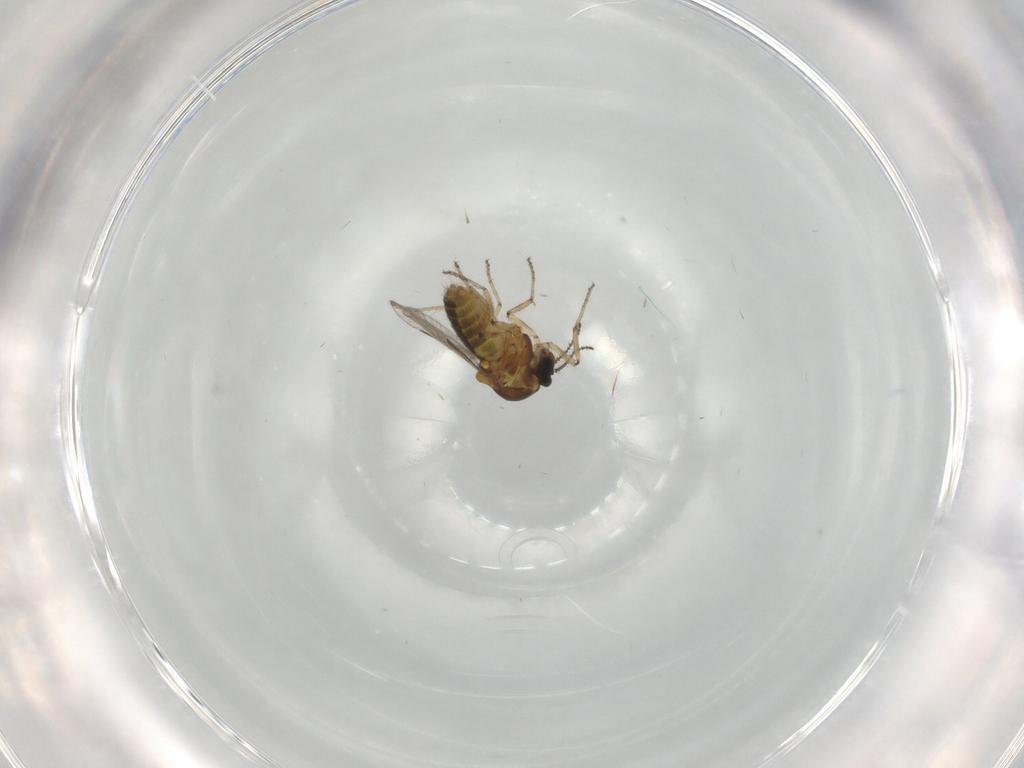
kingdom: Animalia
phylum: Arthropoda
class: Insecta
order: Diptera
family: Ceratopogonidae
